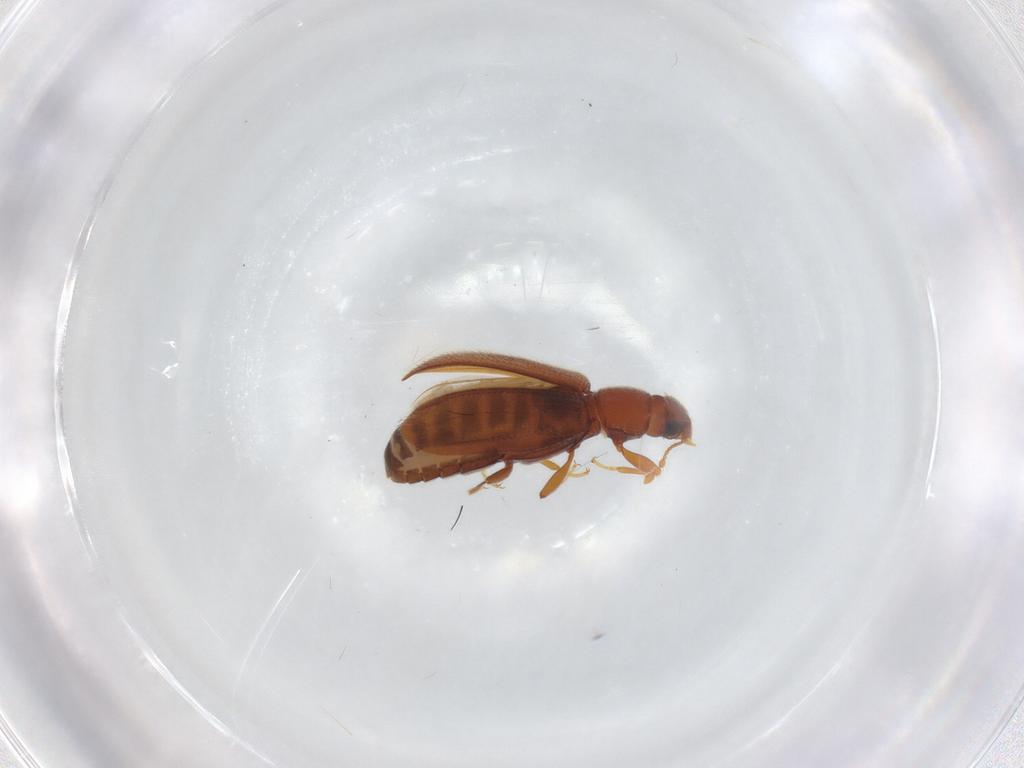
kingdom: Animalia
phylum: Arthropoda
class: Insecta
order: Coleoptera
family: Latridiidae
